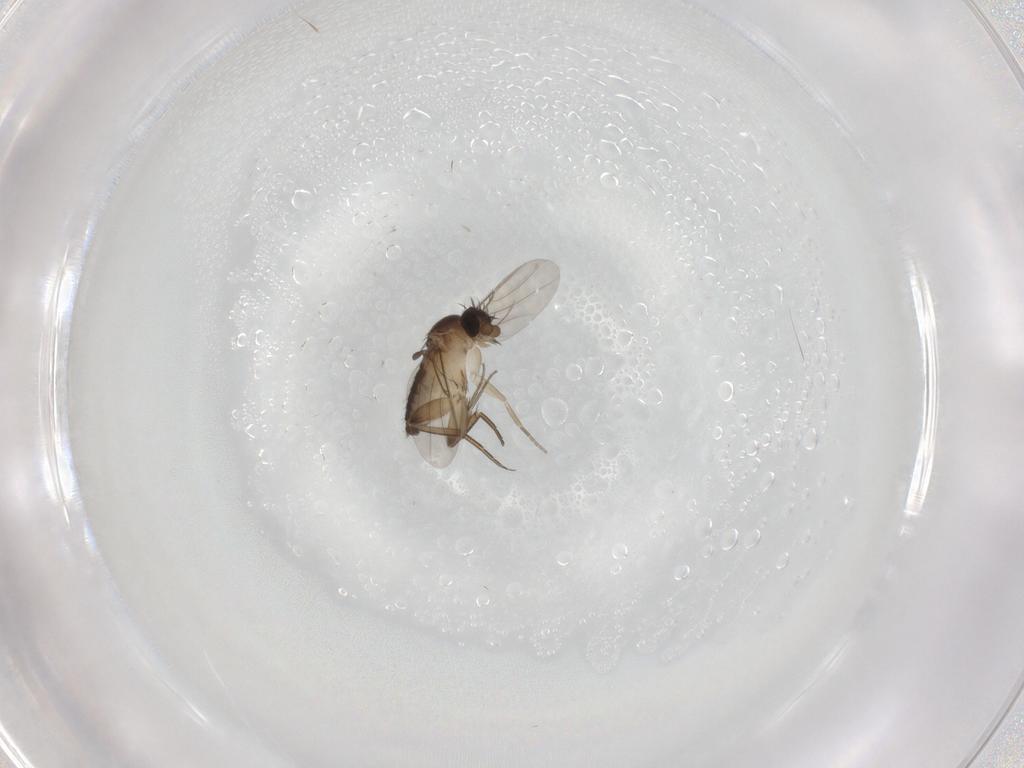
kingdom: Animalia
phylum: Arthropoda
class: Insecta
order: Diptera
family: Phoridae
